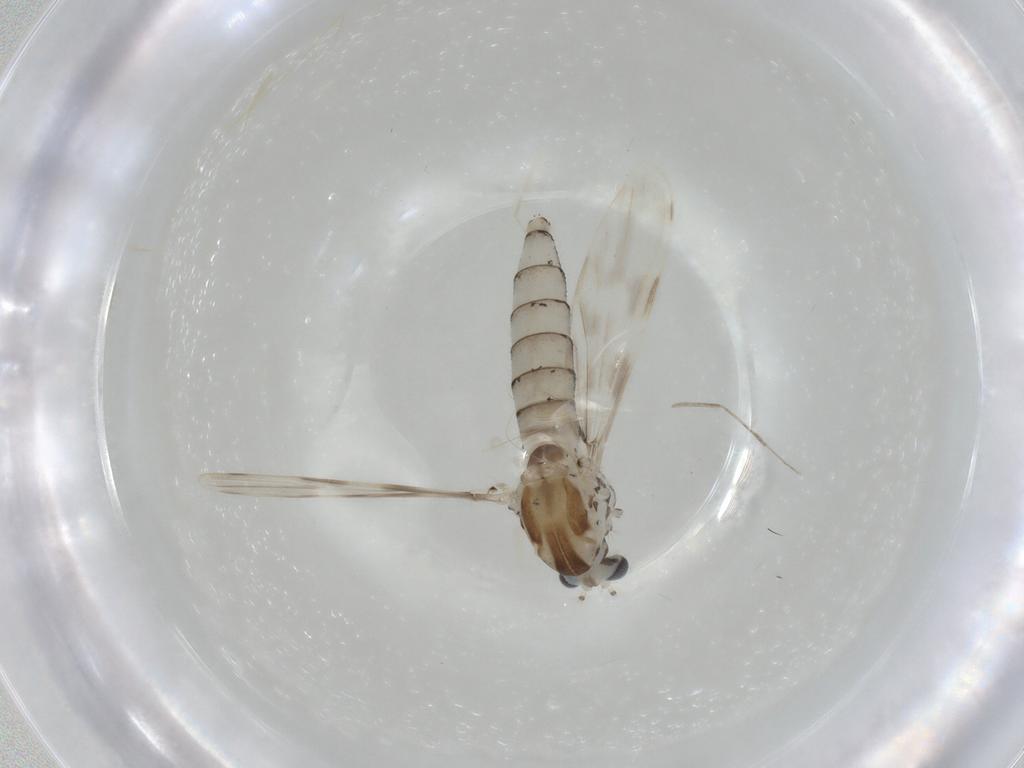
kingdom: Animalia
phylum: Arthropoda
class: Insecta
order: Diptera
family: Chaoboridae
